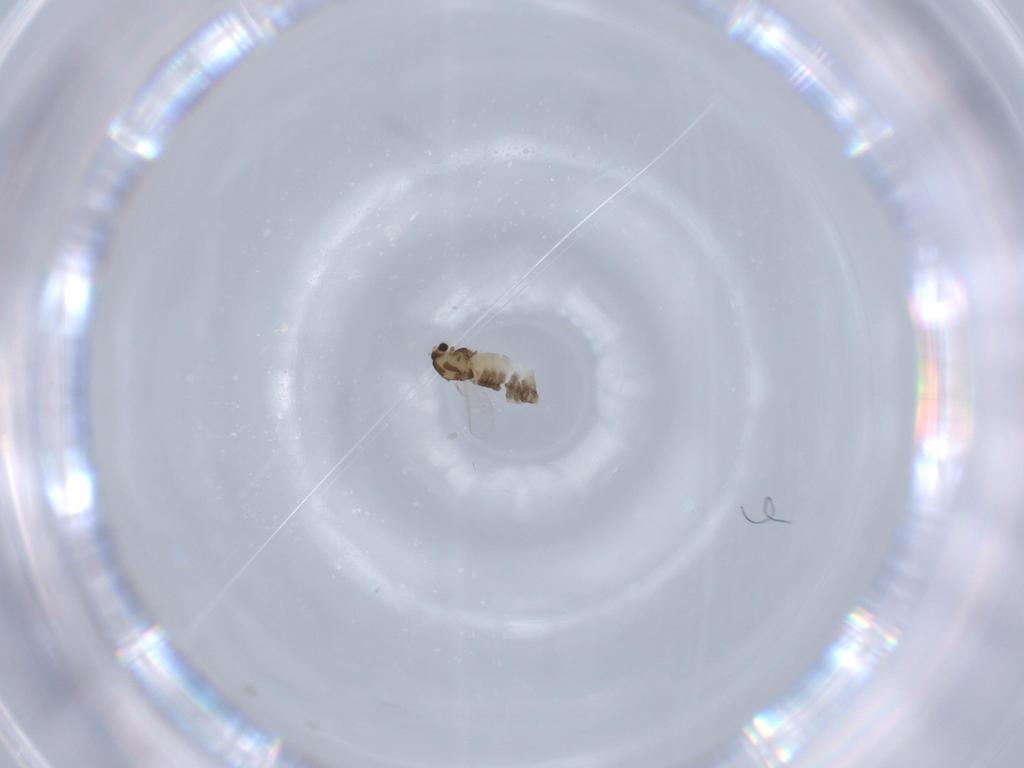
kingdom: Animalia
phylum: Arthropoda
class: Insecta
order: Diptera
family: Chironomidae
